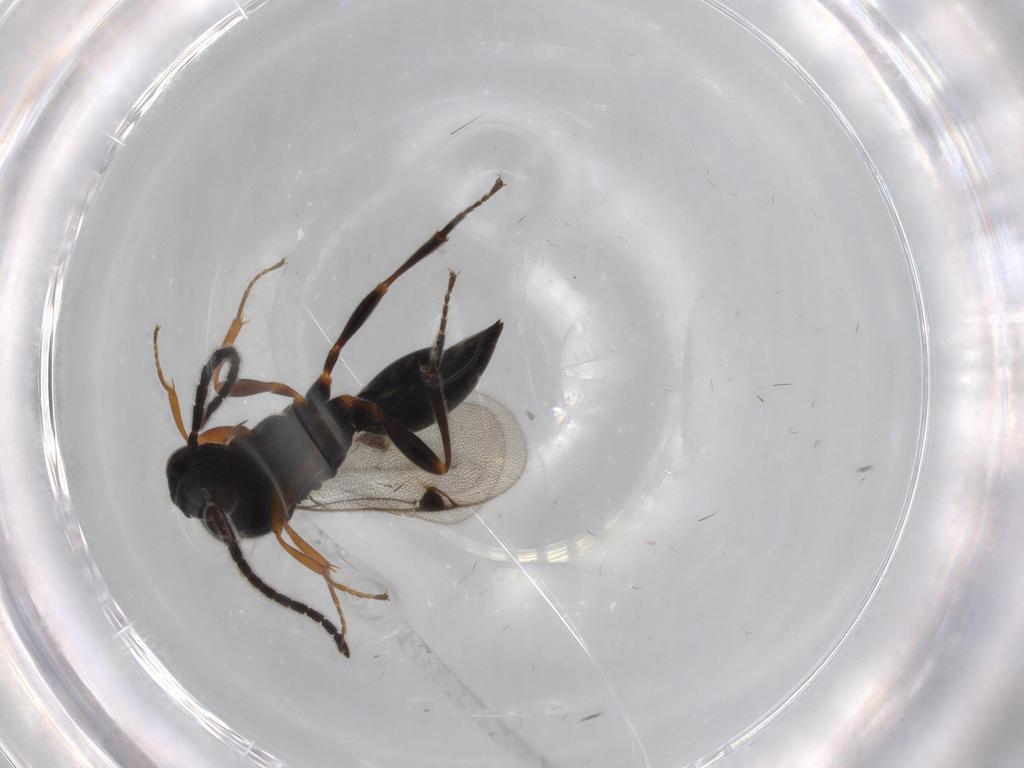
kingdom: Animalia
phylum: Arthropoda
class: Insecta
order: Hymenoptera
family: Proctotrupidae
